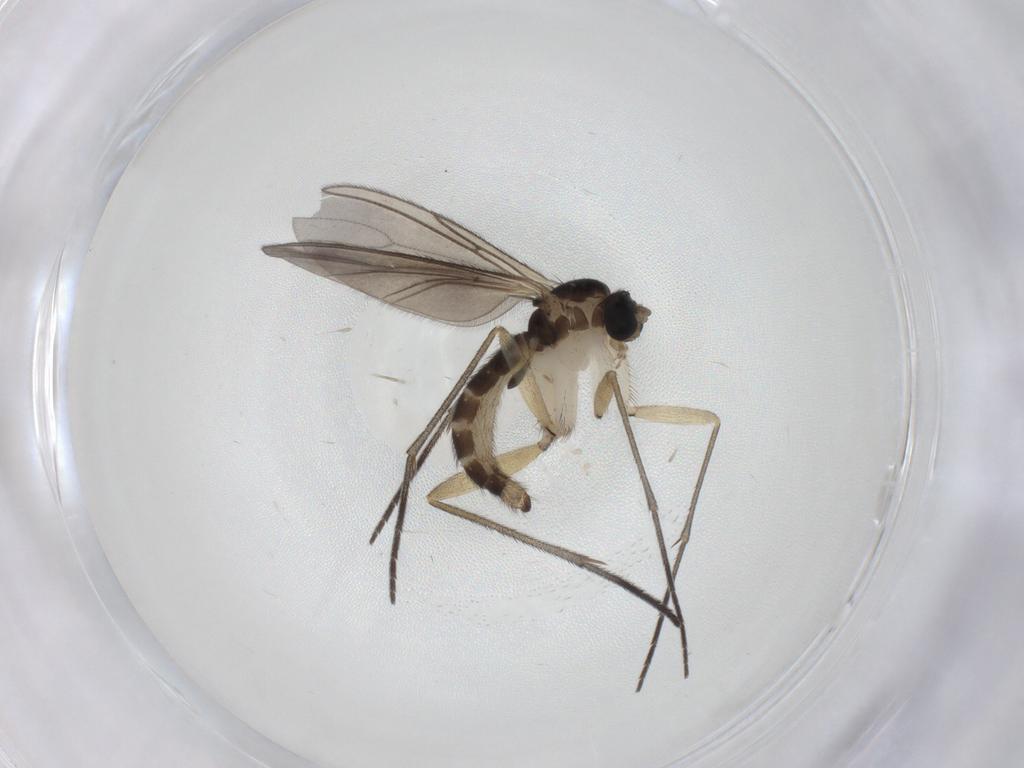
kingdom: Animalia
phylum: Arthropoda
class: Insecta
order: Diptera
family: Sciaridae
